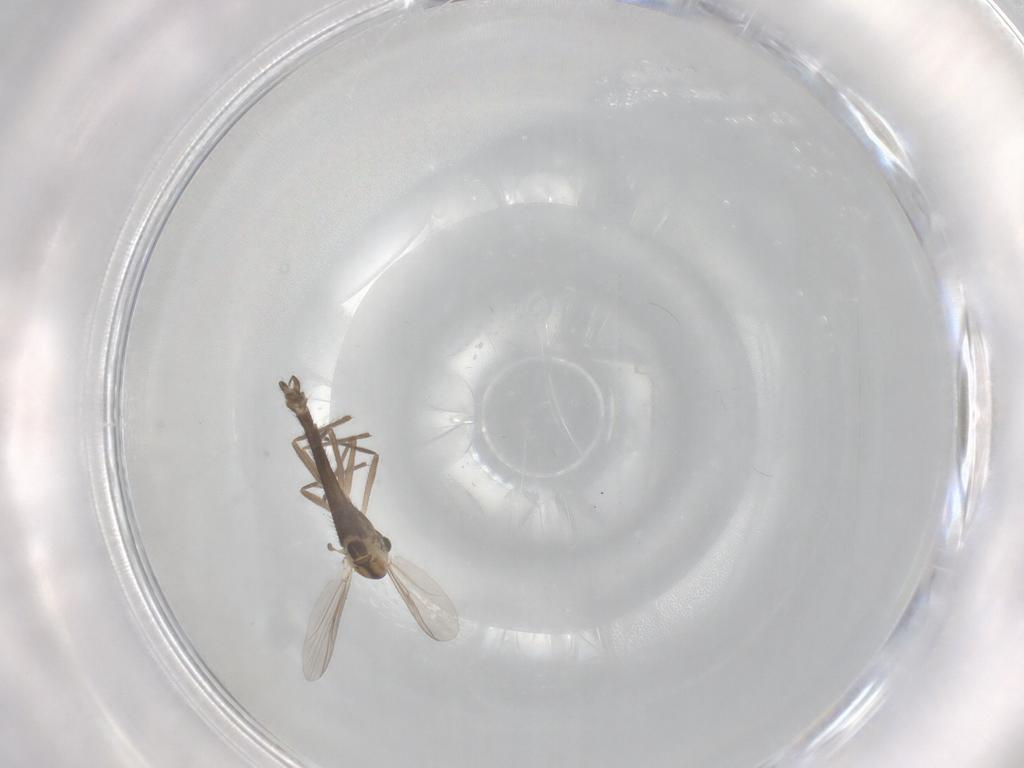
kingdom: Animalia
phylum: Arthropoda
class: Insecta
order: Diptera
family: Chironomidae
